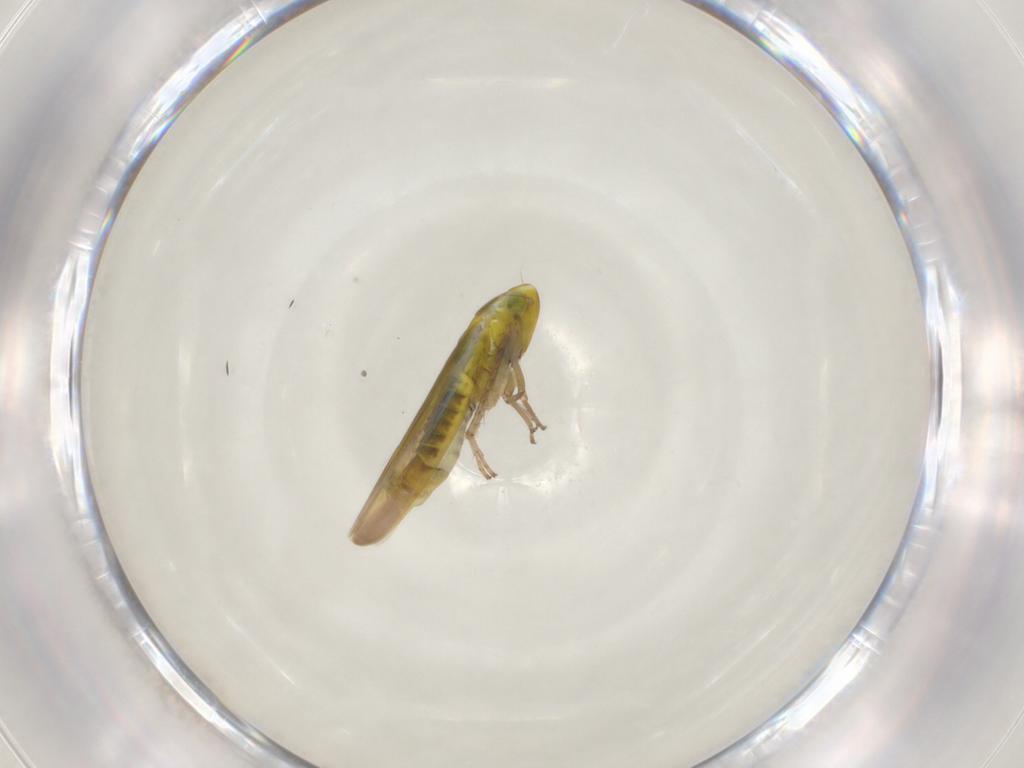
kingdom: Animalia
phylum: Arthropoda
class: Insecta
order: Hemiptera
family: Cicadellidae
